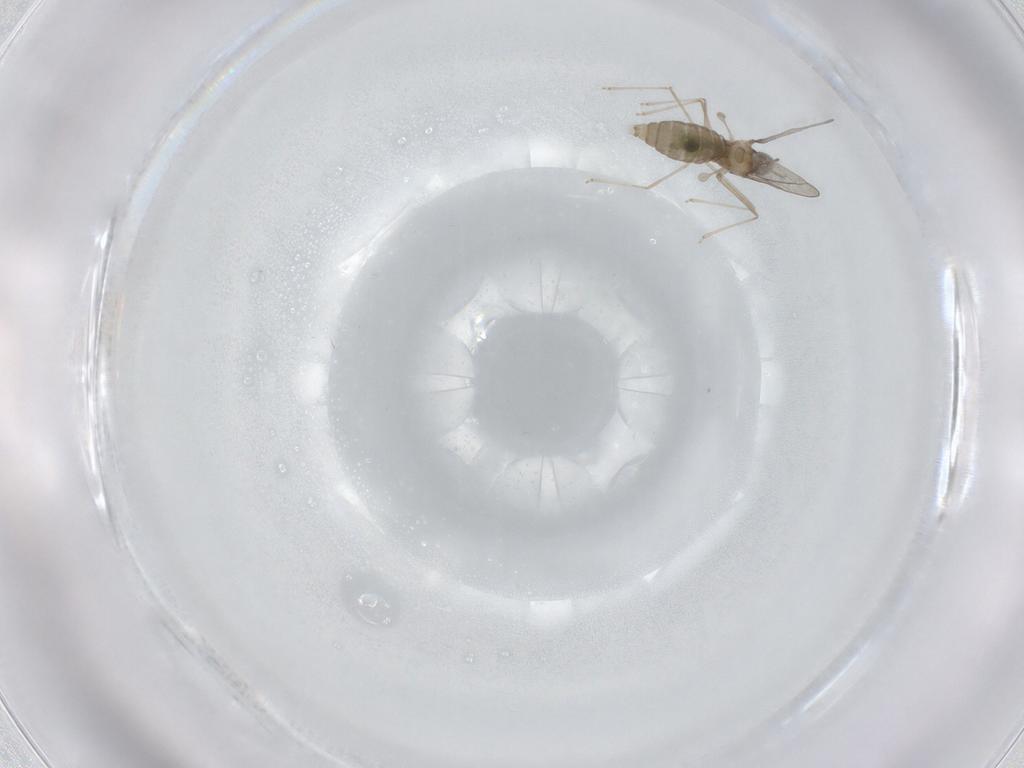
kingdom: Animalia
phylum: Arthropoda
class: Insecta
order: Diptera
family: Cecidomyiidae
